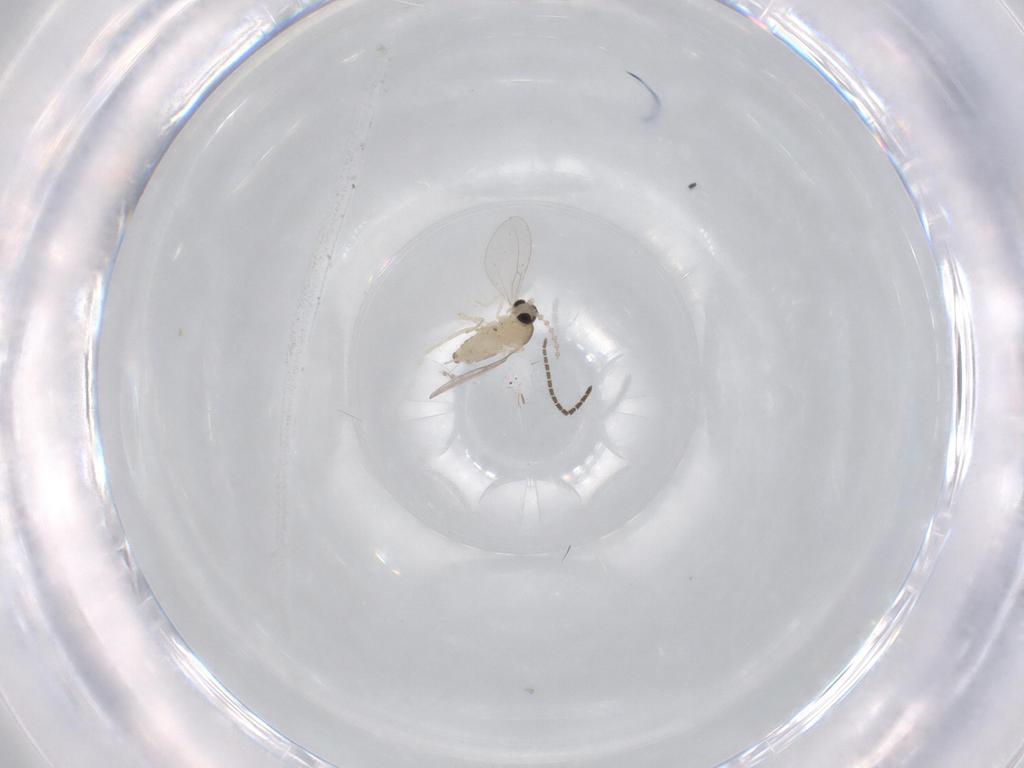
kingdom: Animalia
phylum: Arthropoda
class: Insecta
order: Diptera
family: Cecidomyiidae
